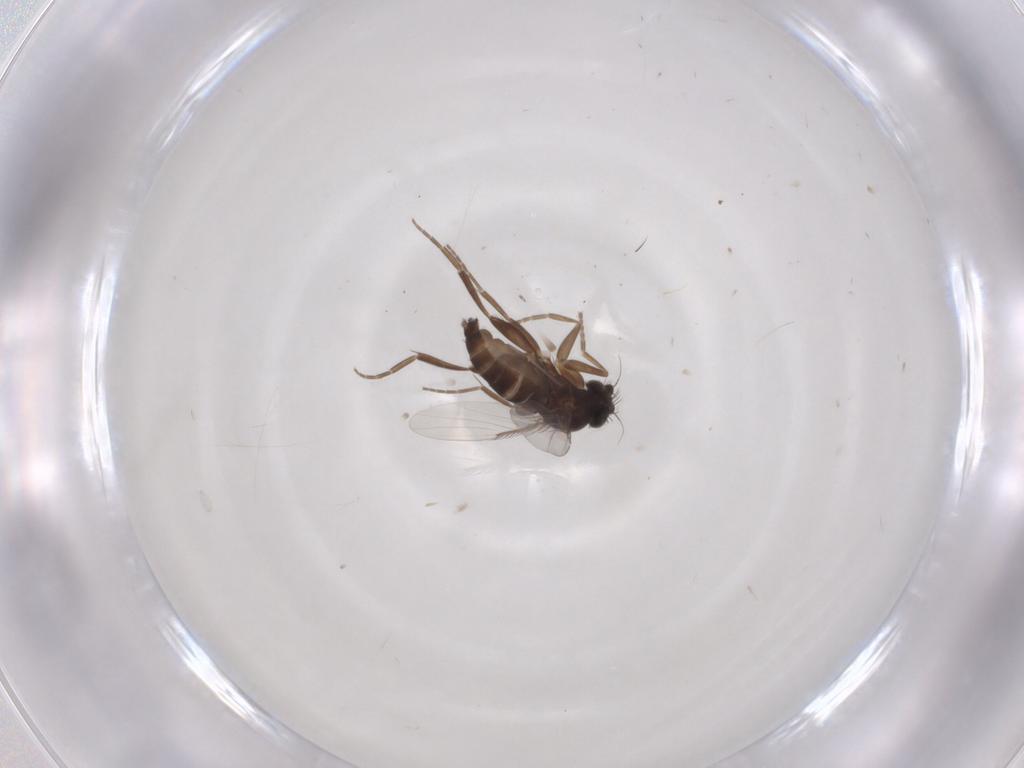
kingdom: Animalia
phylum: Arthropoda
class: Insecta
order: Diptera
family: Phoridae
